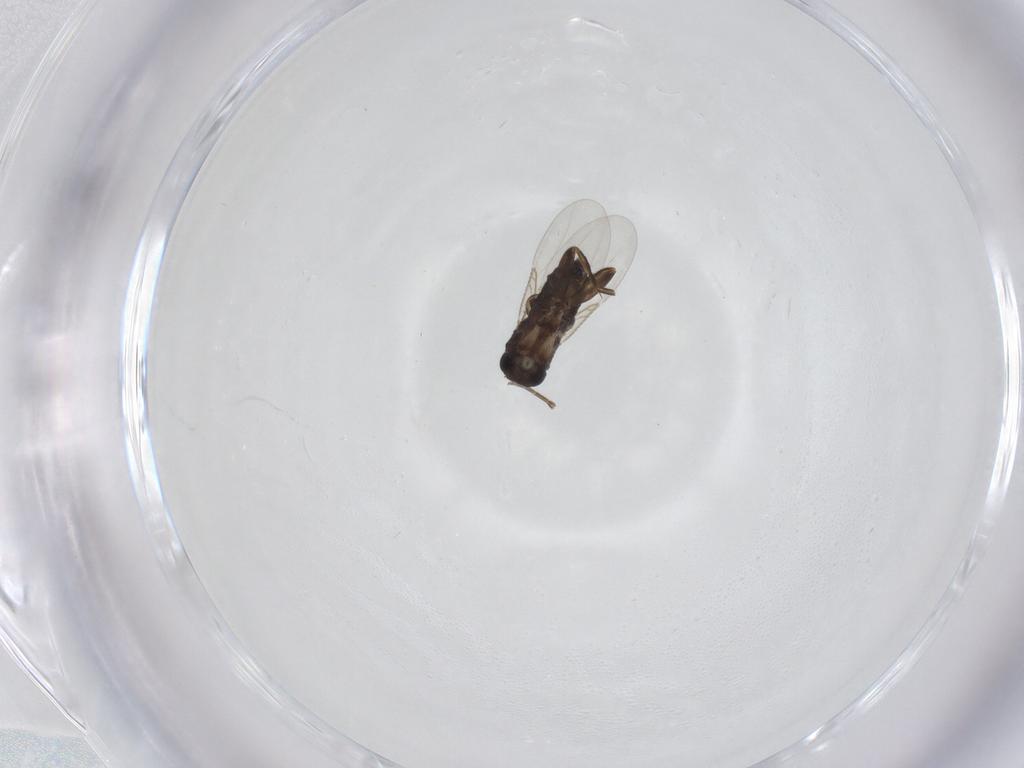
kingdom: Animalia
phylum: Arthropoda
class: Insecta
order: Diptera
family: Phoridae
